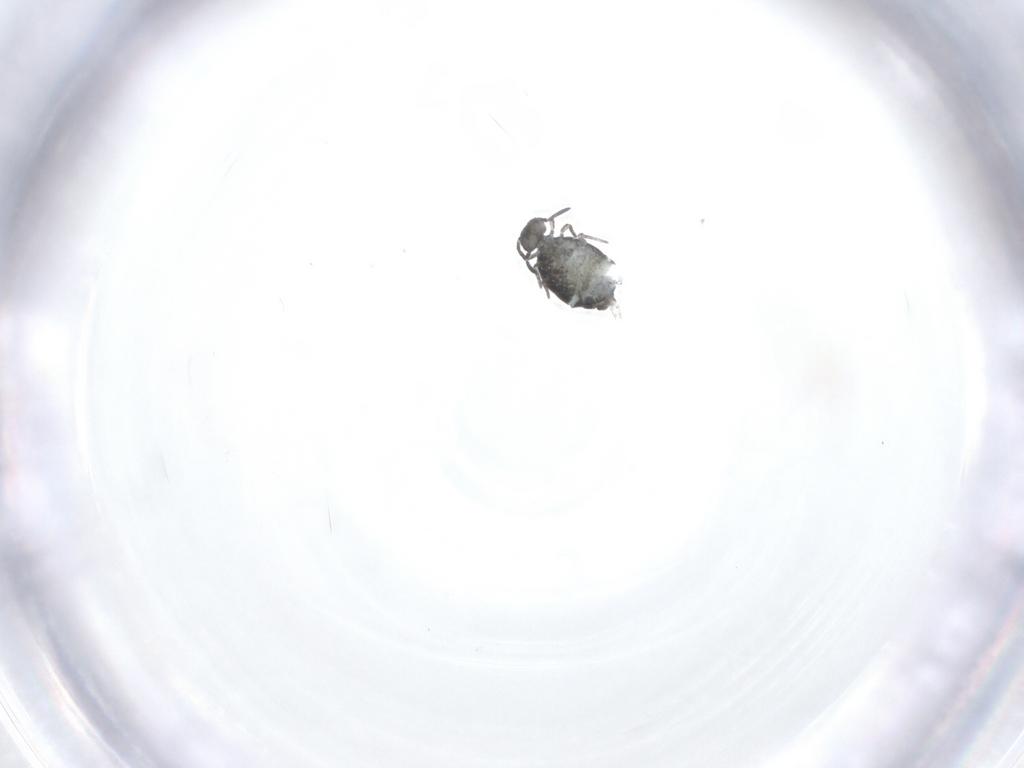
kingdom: Animalia
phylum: Arthropoda
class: Collembola
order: Symphypleona
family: Katiannidae
